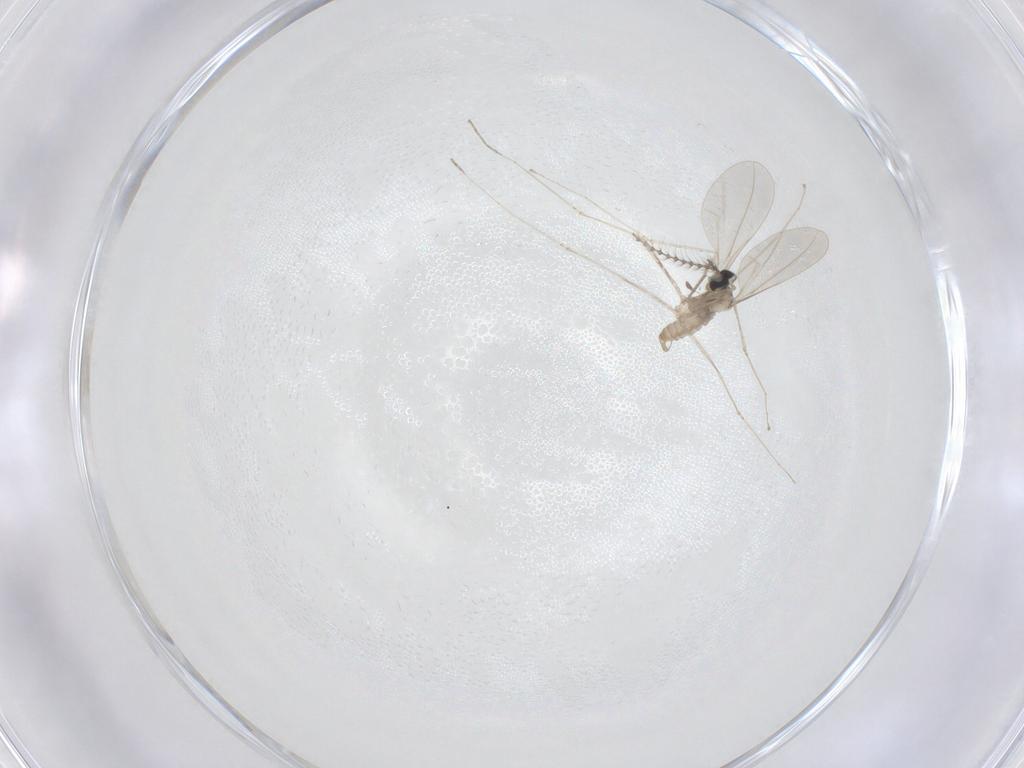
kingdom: Animalia
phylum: Arthropoda
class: Insecta
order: Diptera
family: Cecidomyiidae
